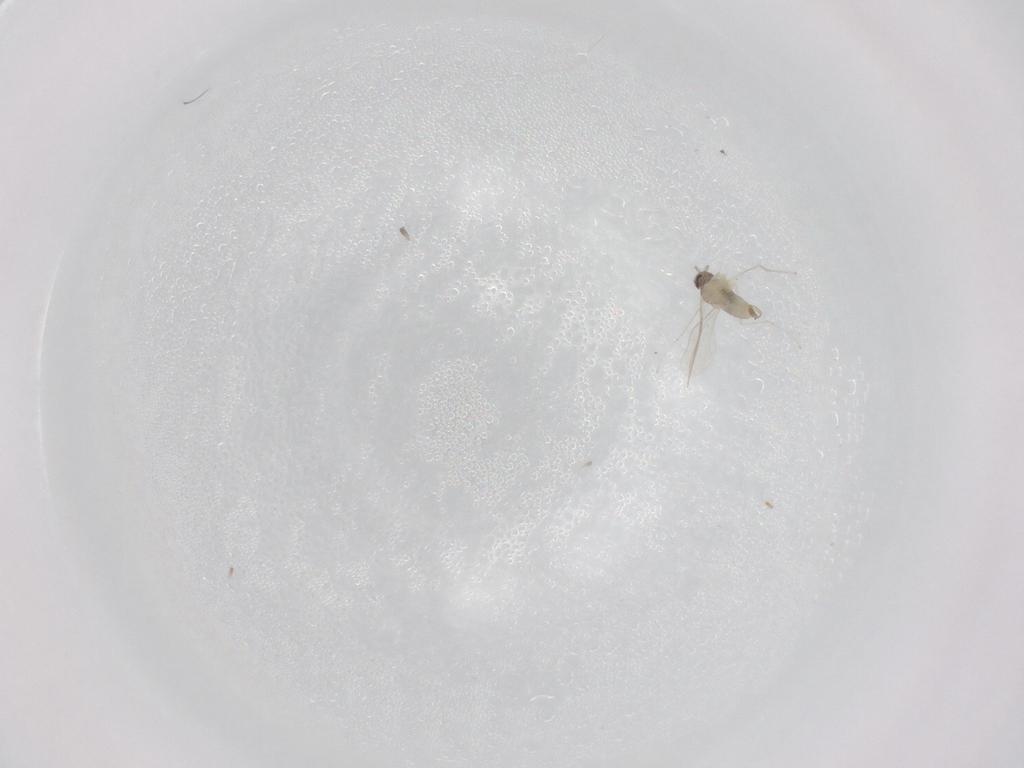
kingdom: Animalia
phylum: Arthropoda
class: Insecta
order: Diptera
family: Cecidomyiidae
